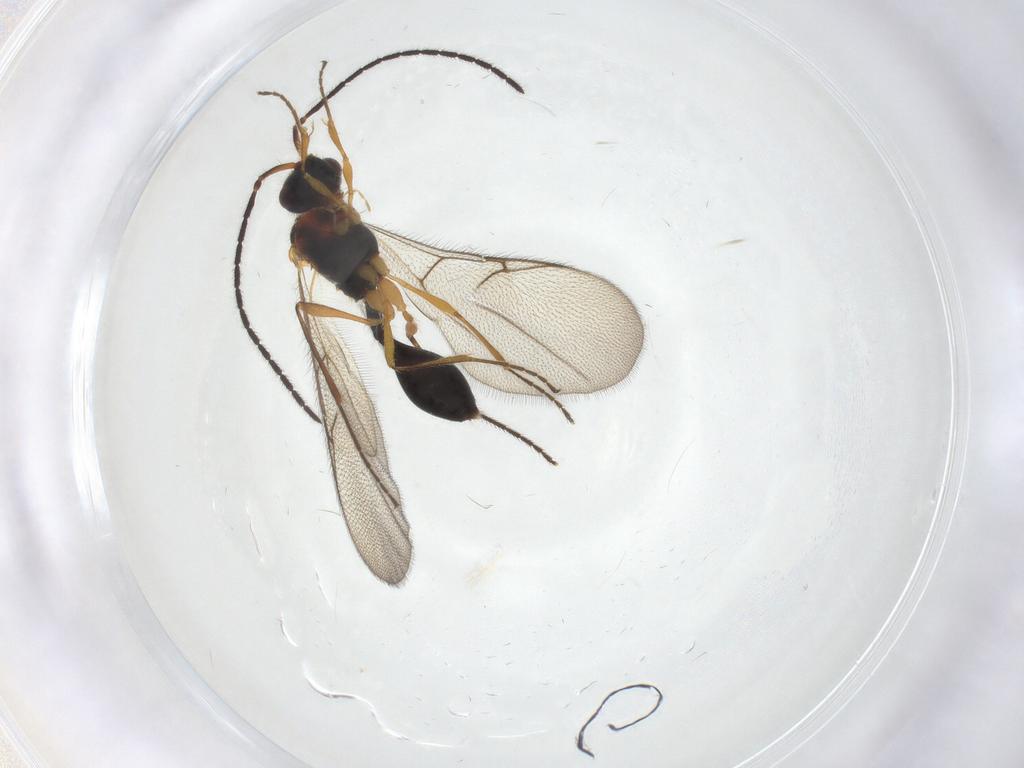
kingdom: Animalia
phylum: Arthropoda
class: Insecta
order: Hymenoptera
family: Diapriidae
